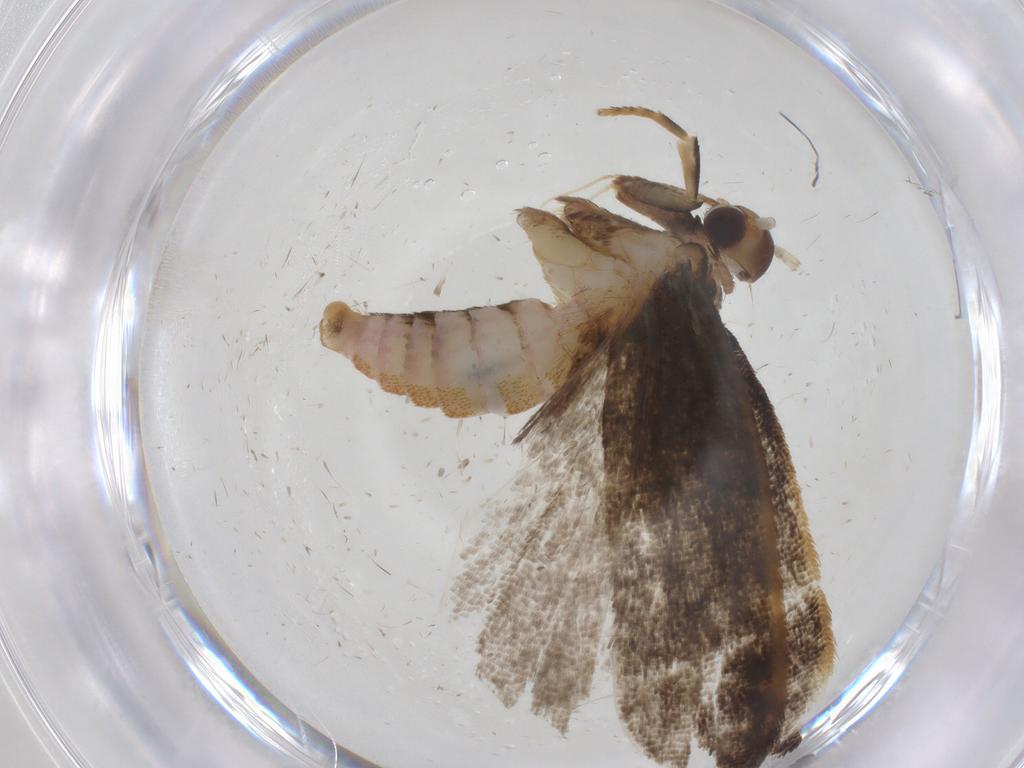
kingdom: Animalia
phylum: Arthropoda
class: Insecta
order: Lepidoptera
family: Lecithoceridae
